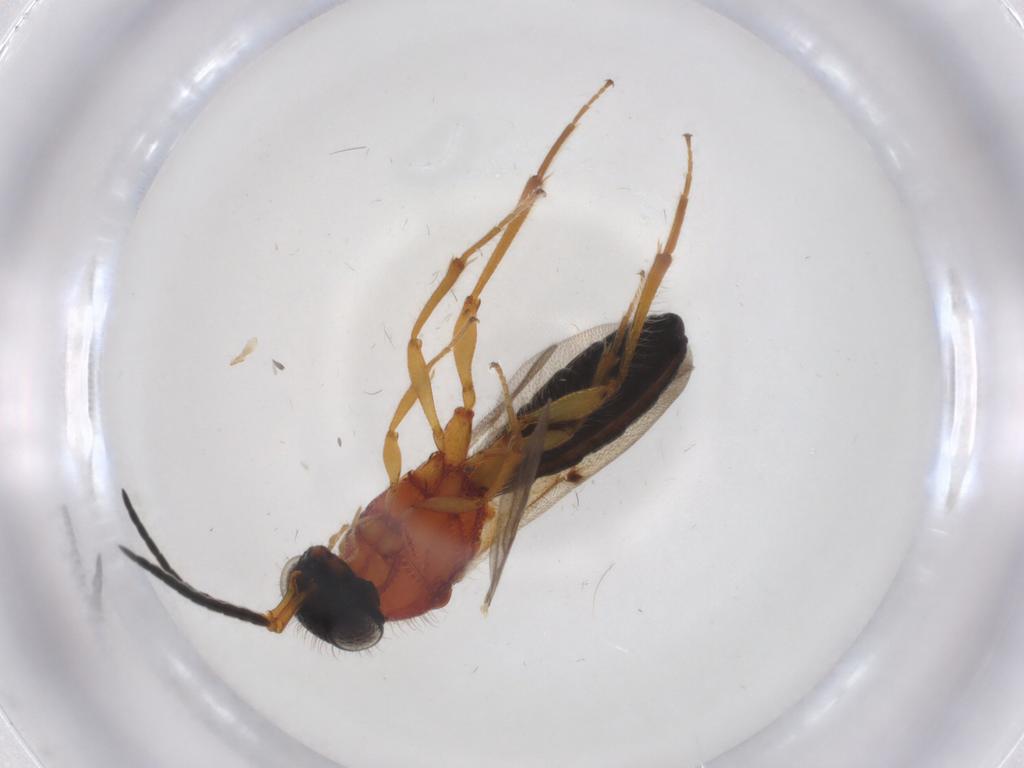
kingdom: Animalia
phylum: Arthropoda
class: Insecta
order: Hymenoptera
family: Scelionidae
